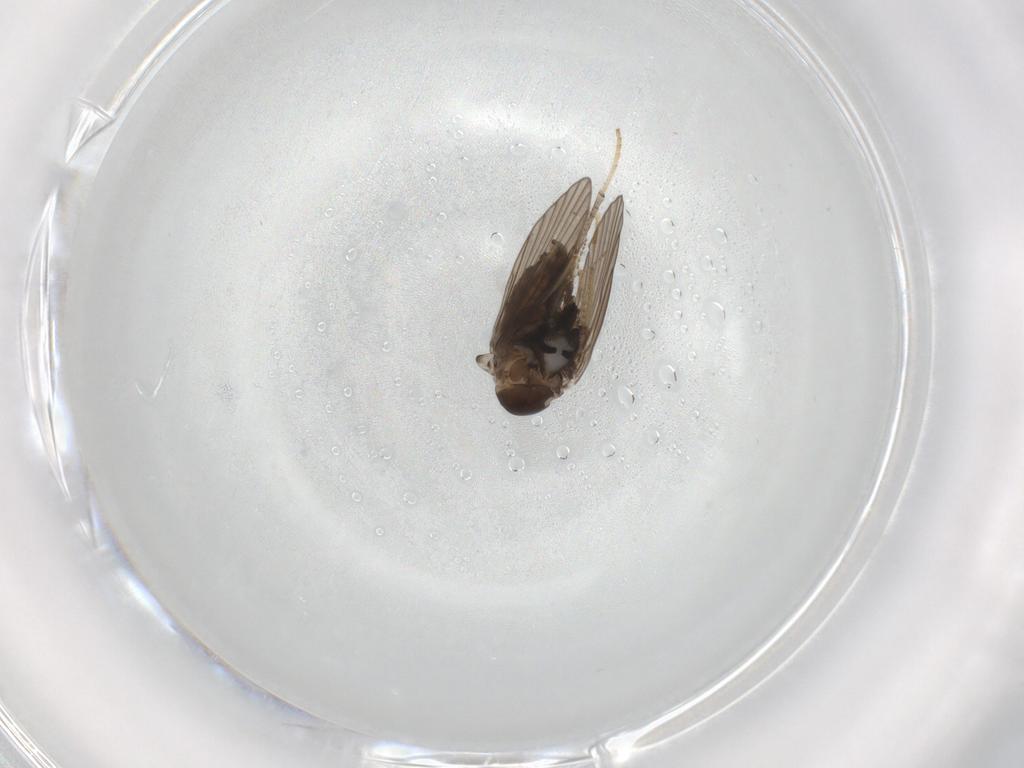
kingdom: Animalia
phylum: Arthropoda
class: Insecta
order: Diptera
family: Psychodidae
